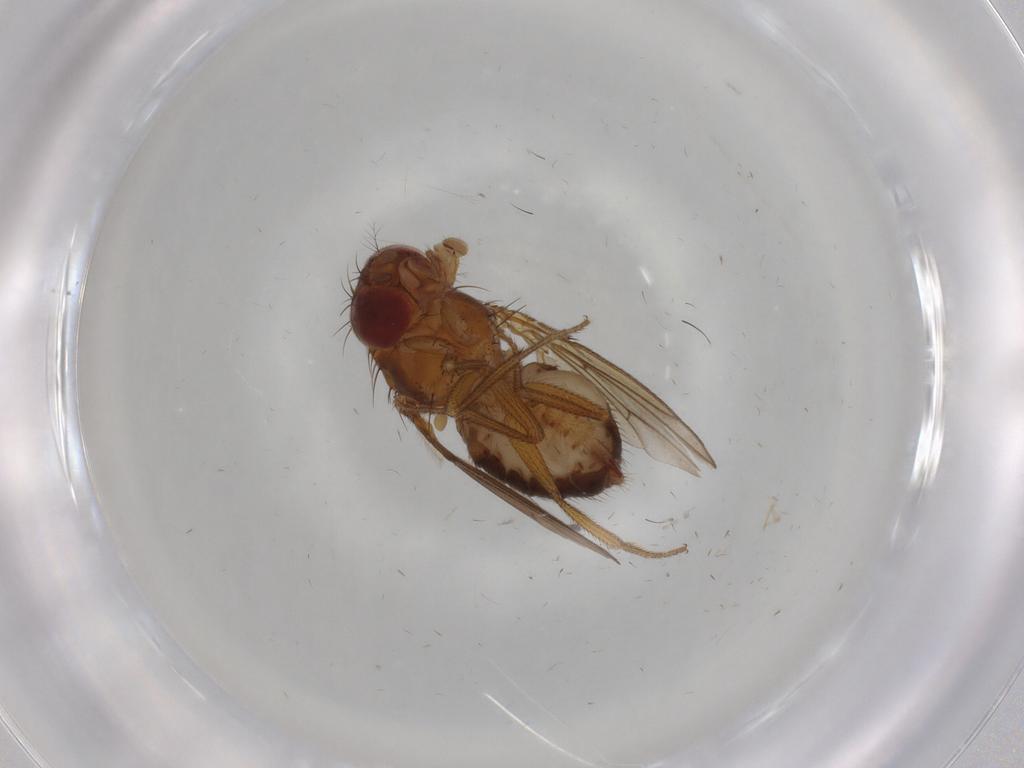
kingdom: Animalia
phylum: Arthropoda
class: Insecta
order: Diptera
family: Drosophilidae
